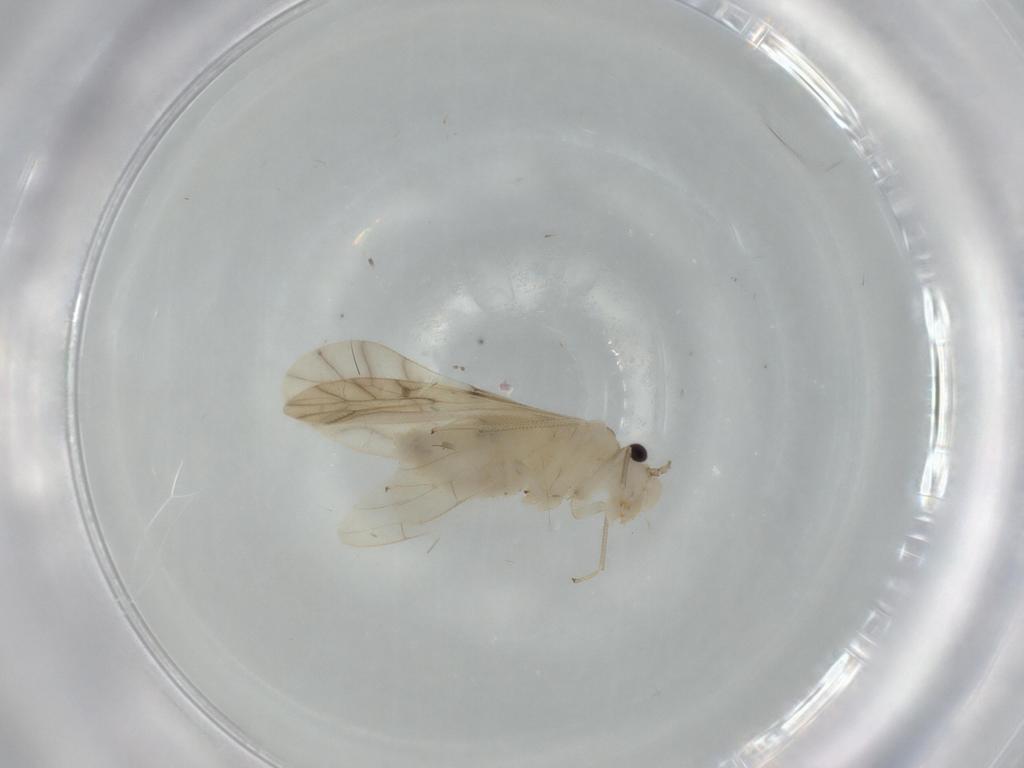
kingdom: Animalia
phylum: Arthropoda
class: Insecta
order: Psocodea
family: Caeciliusidae
